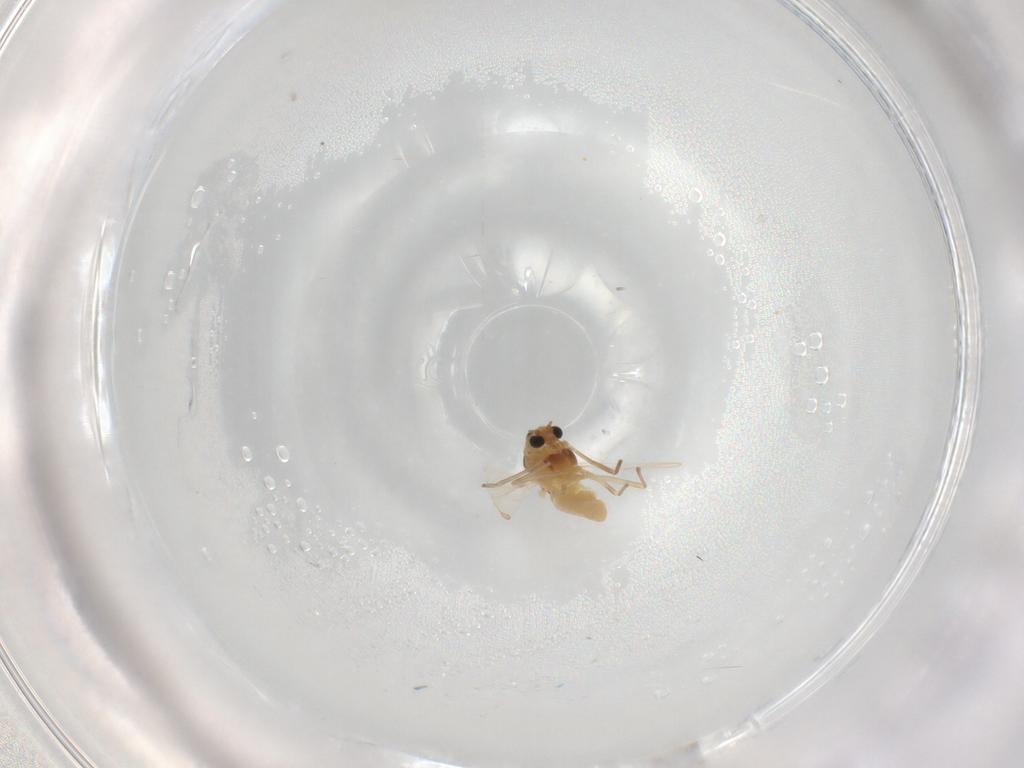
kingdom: Animalia
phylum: Arthropoda
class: Insecta
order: Diptera
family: Chironomidae
